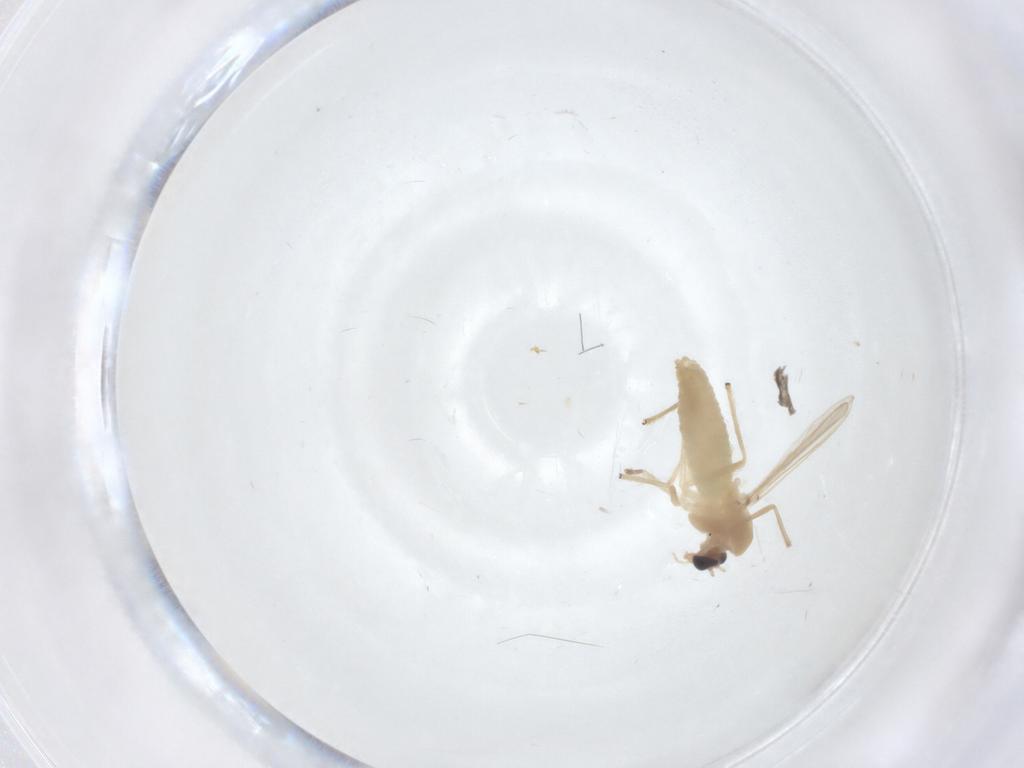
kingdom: Animalia
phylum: Arthropoda
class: Insecta
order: Diptera
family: Chironomidae
